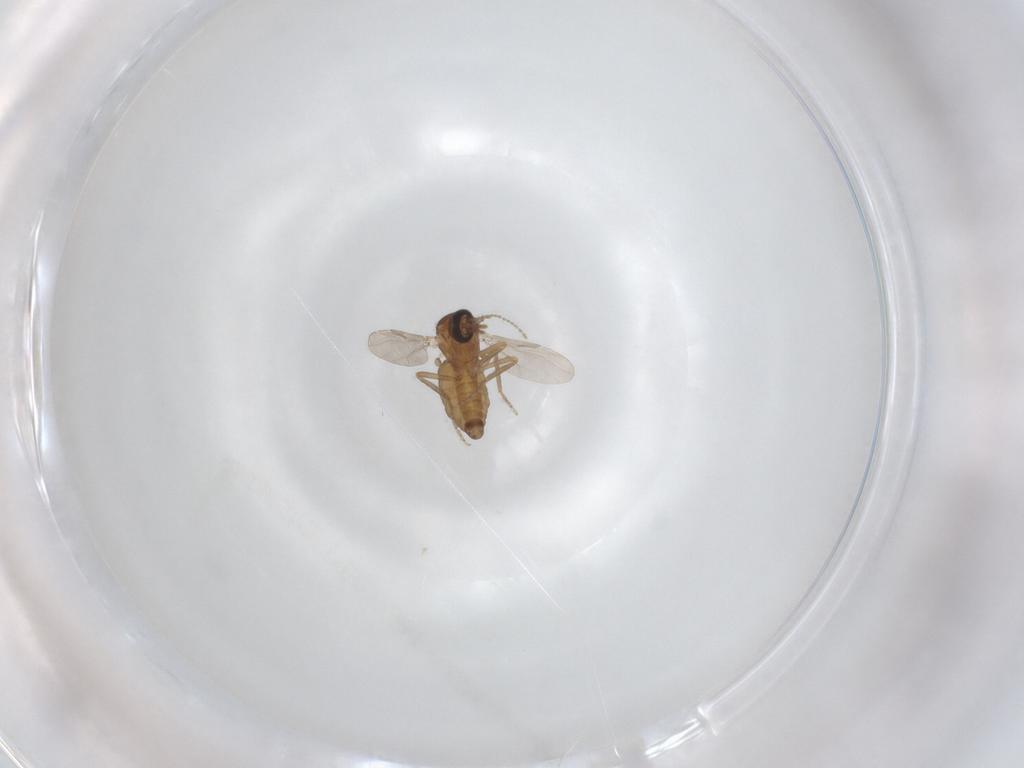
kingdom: Animalia
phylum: Arthropoda
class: Insecta
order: Diptera
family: Ceratopogonidae
